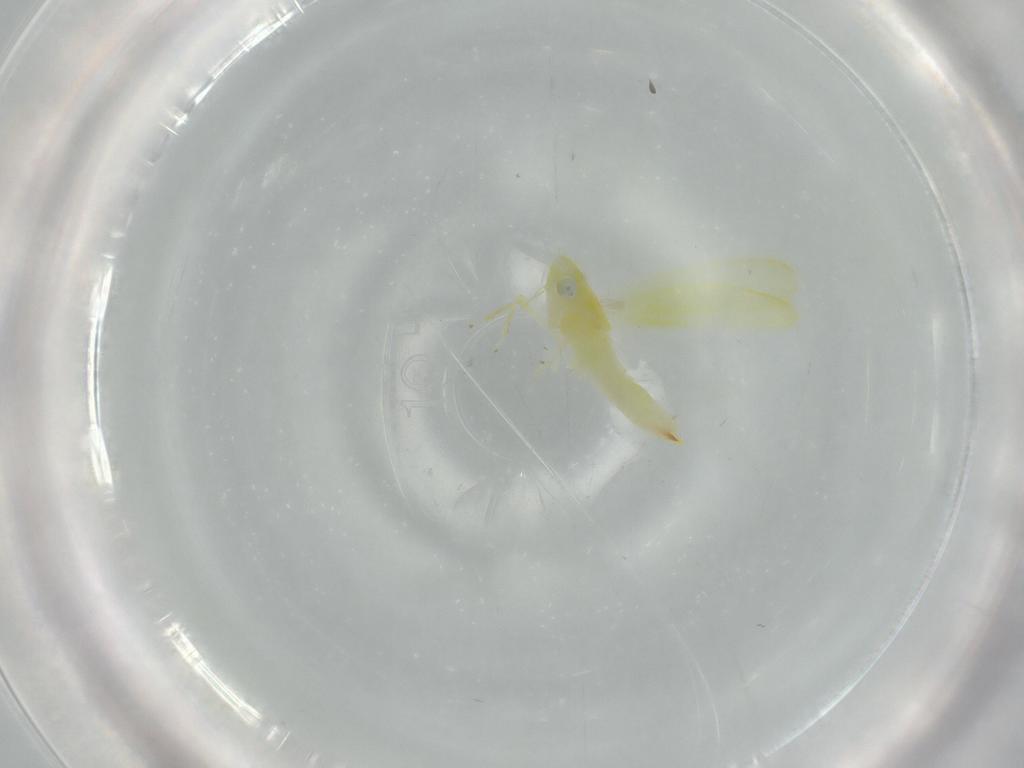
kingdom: Animalia
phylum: Arthropoda
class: Insecta
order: Hemiptera
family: Cicadellidae
